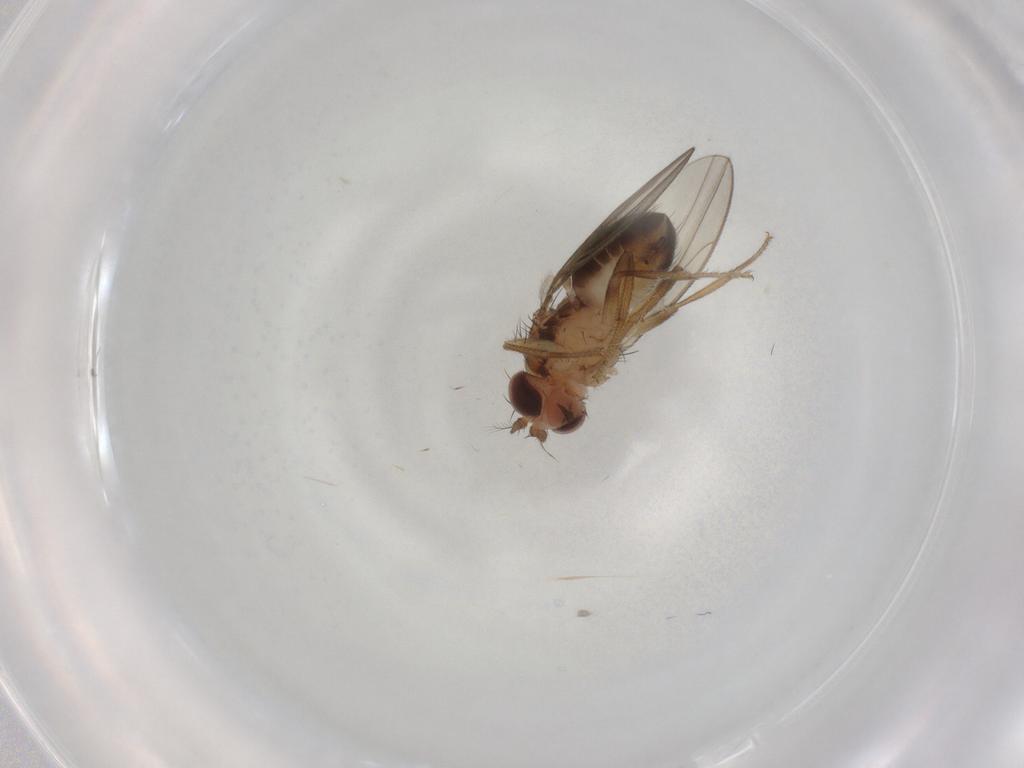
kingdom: Animalia
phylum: Arthropoda
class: Insecta
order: Diptera
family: Drosophilidae
